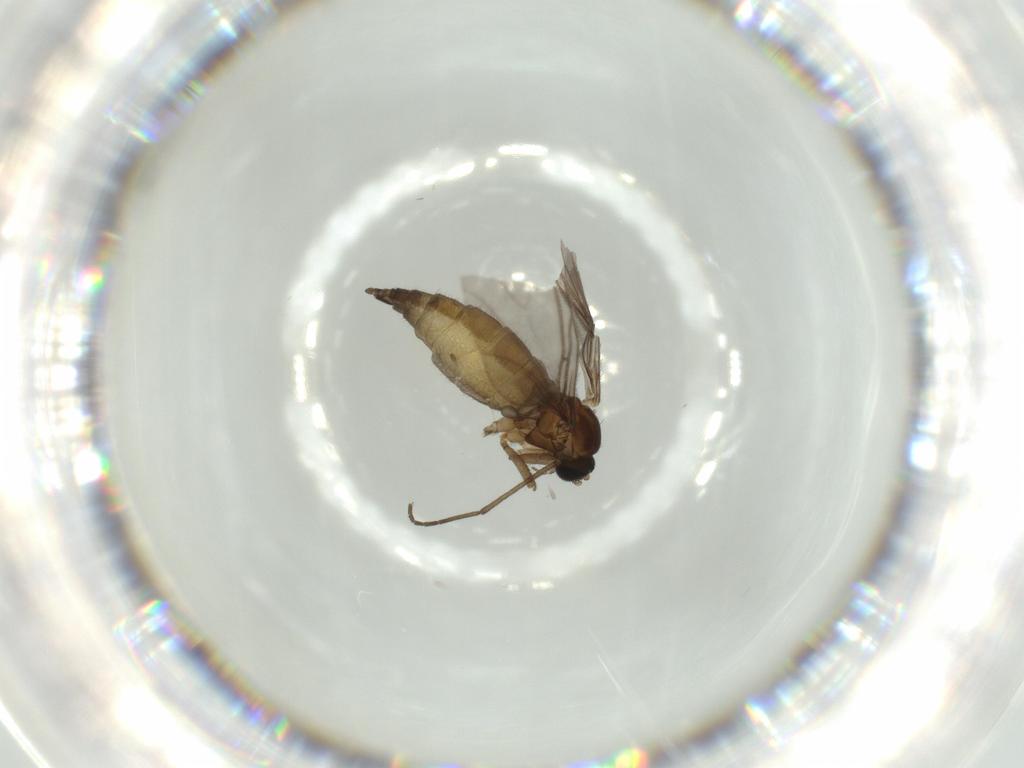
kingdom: Animalia
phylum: Arthropoda
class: Insecta
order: Diptera
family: Sciaridae
